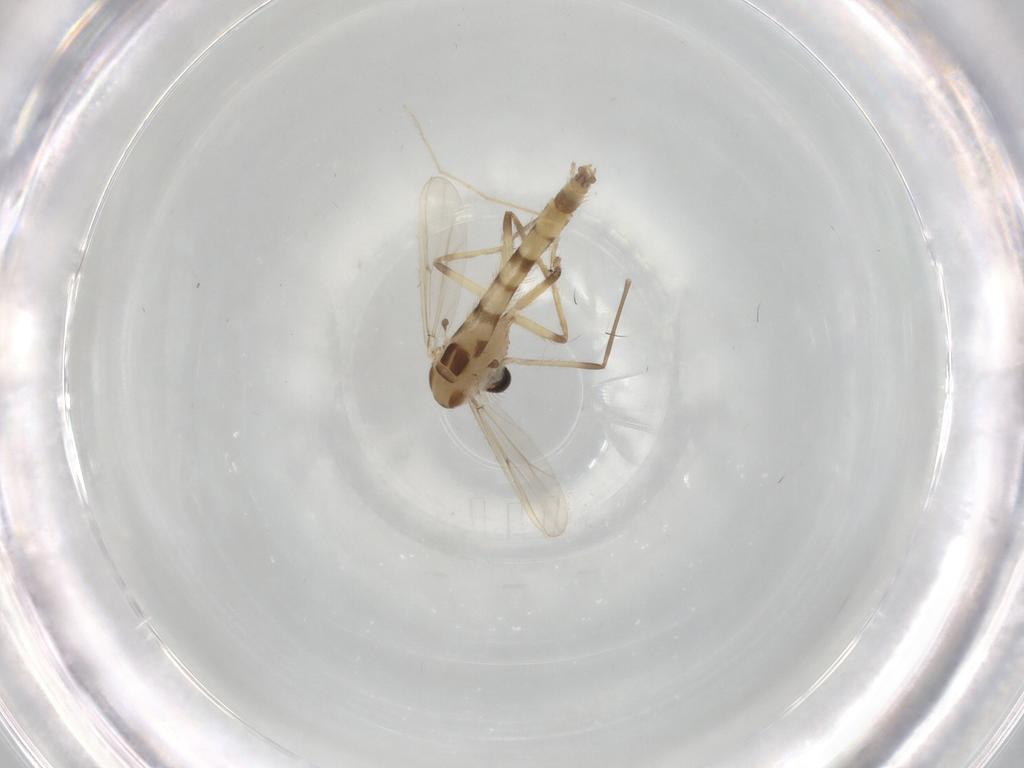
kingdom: Animalia
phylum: Arthropoda
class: Insecta
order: Diptera
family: Chironomidae
